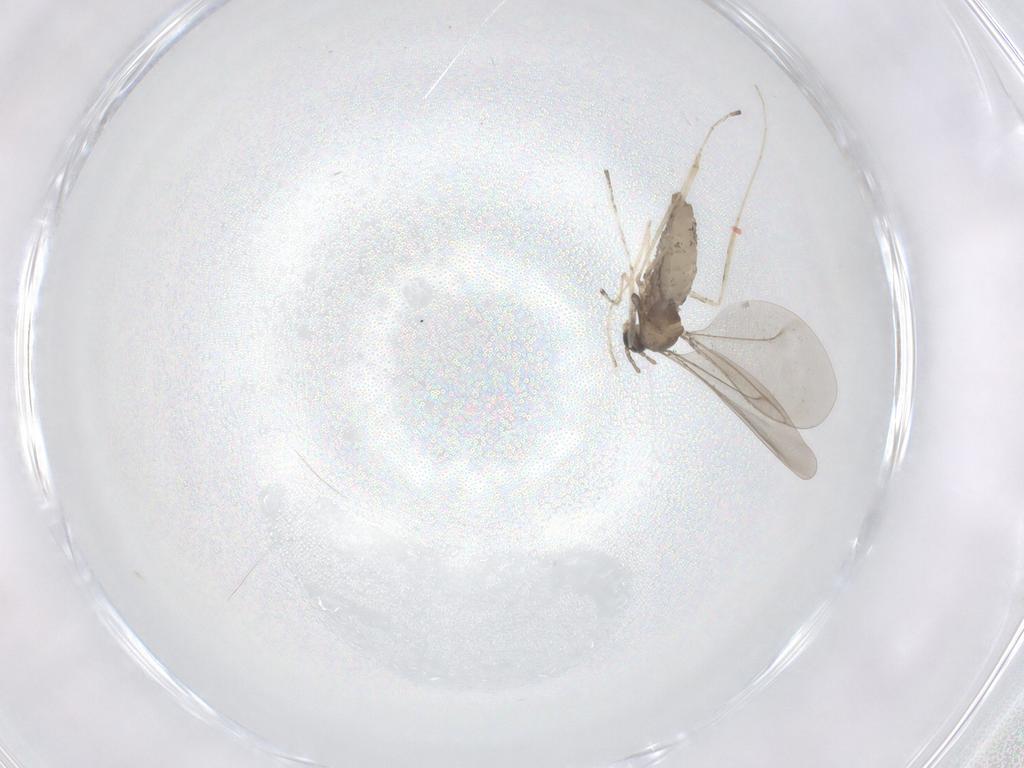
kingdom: Animalia
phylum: Arthropoda
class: Insecta
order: Diptera
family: Cecidomyiidae
